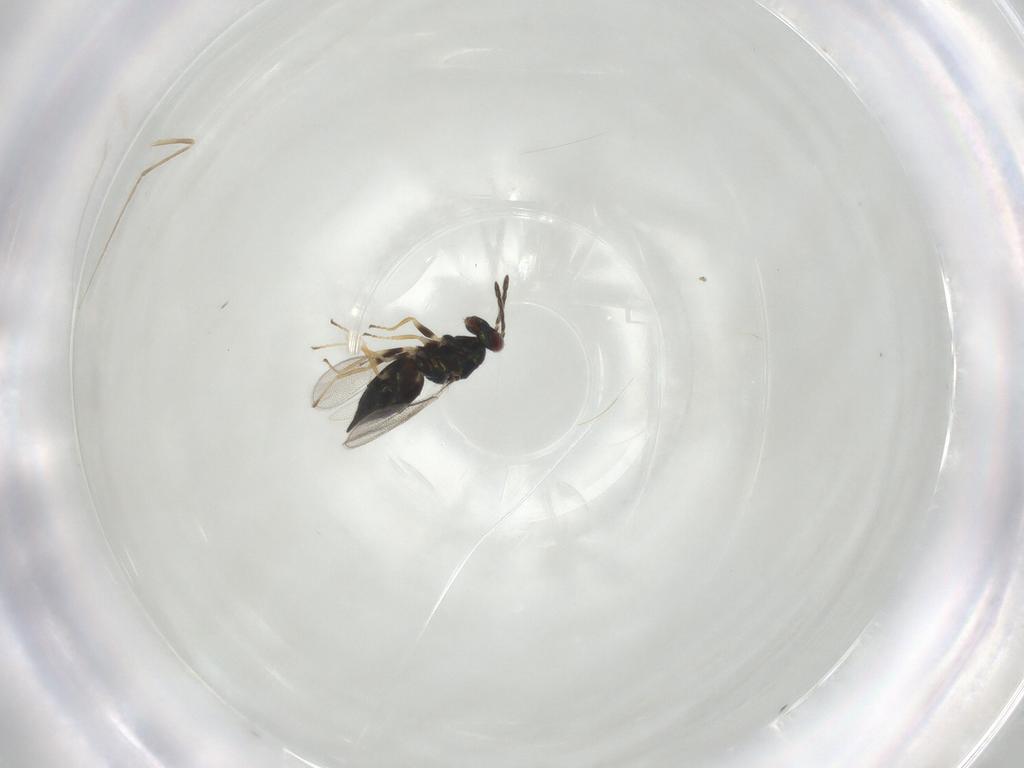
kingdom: Animalia
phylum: Arthropoda
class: Insecta
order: Hymenoptera
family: Eulophidae
